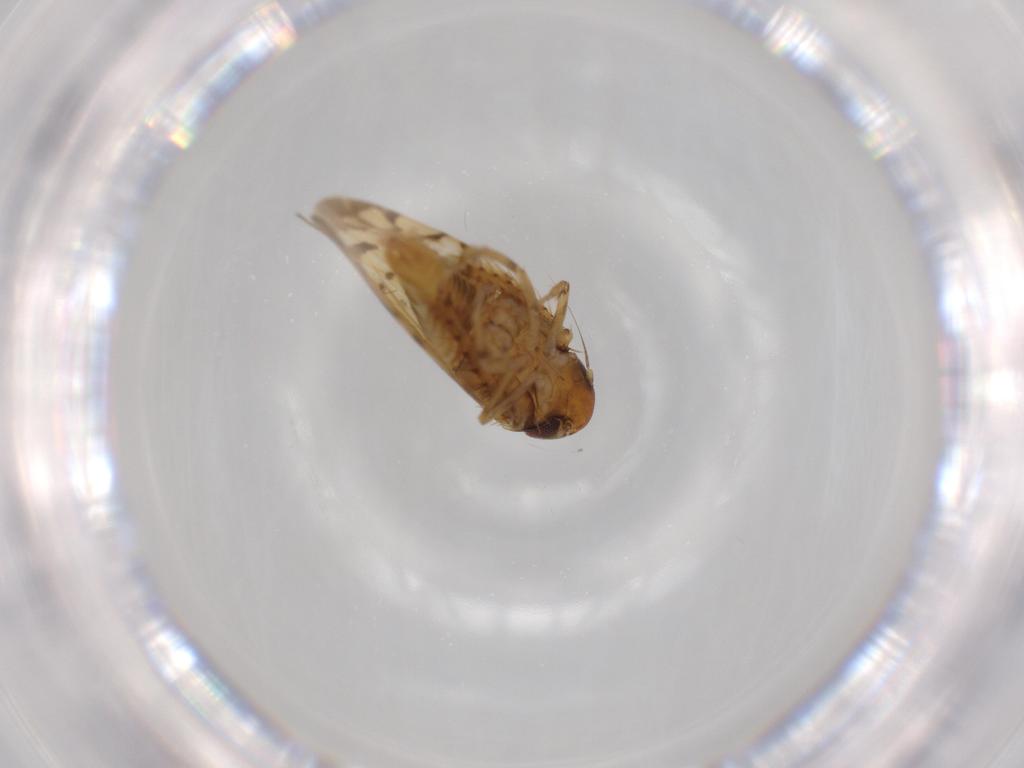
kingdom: Animalia
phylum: Arthropoda
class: Insecta
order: Hemiptera
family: Cicadellidae
